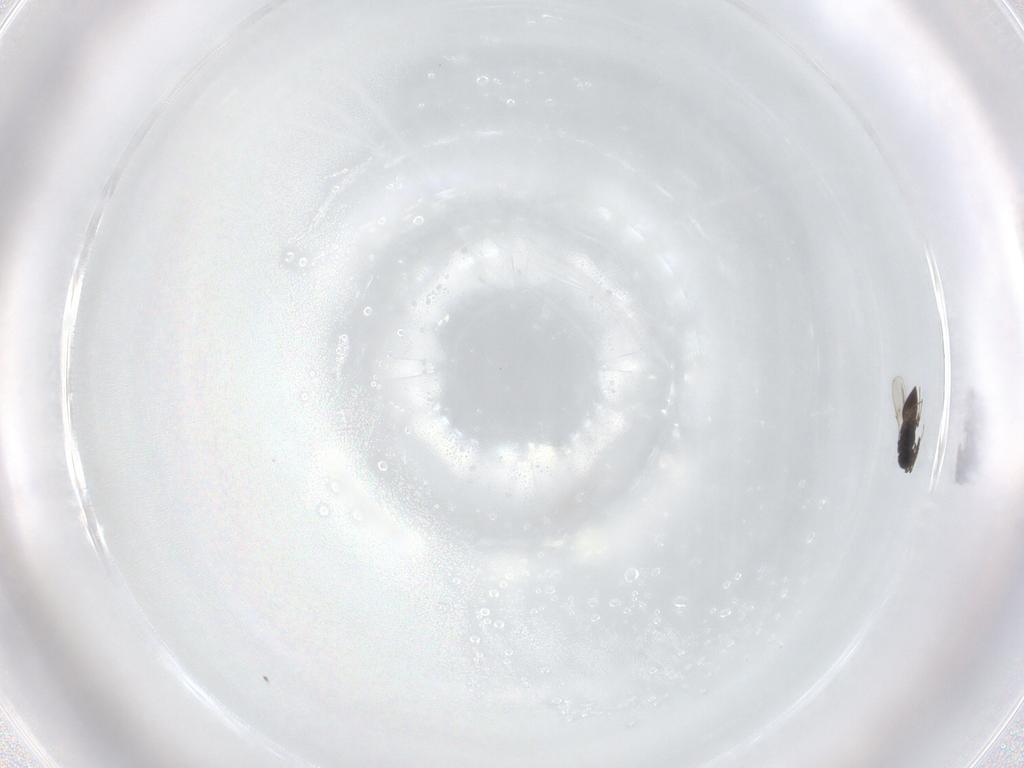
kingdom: Animalia
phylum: Arthropoda
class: Insecta
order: Hymenoptera
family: Scelionidae
